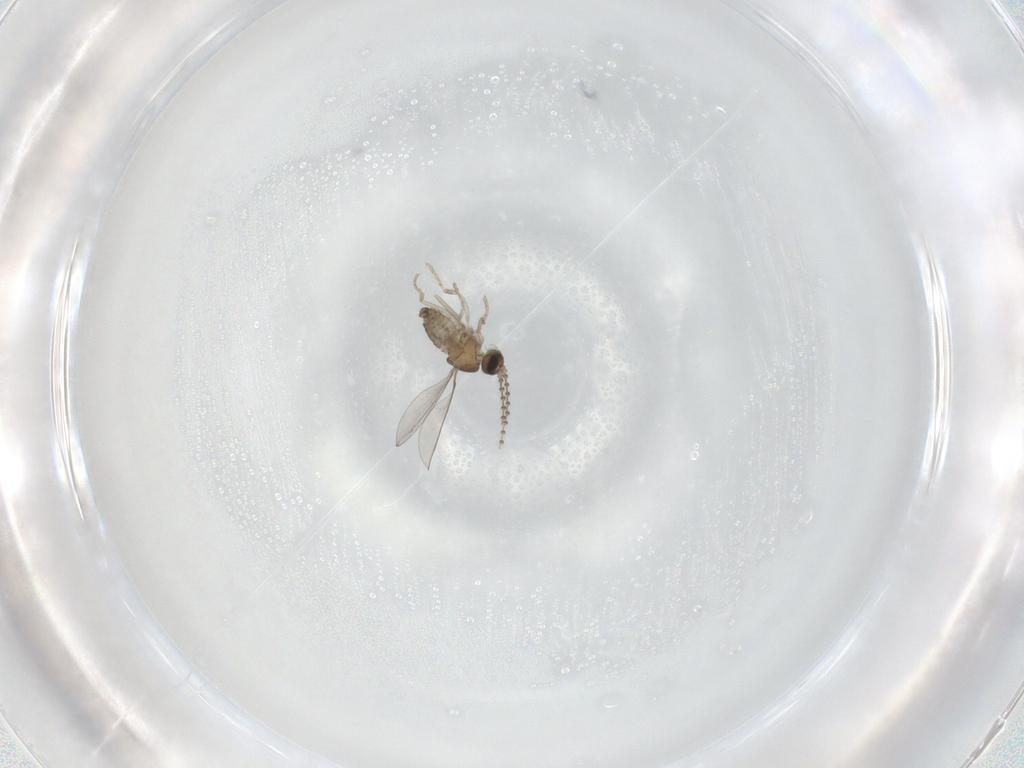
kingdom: Animalia
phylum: Arthropoda
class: Insecta
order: Diptera
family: Cecidomyiidae
